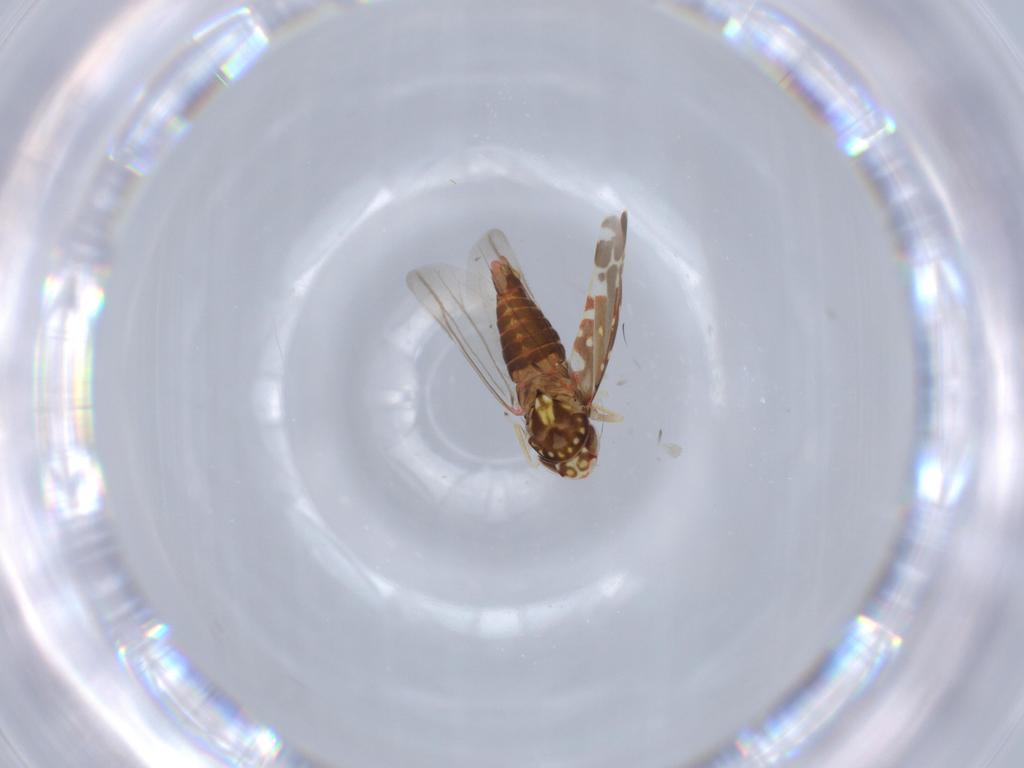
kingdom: Animalia
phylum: Arthropoda
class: Insecta
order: Hemiptera
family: Cicadellidae
